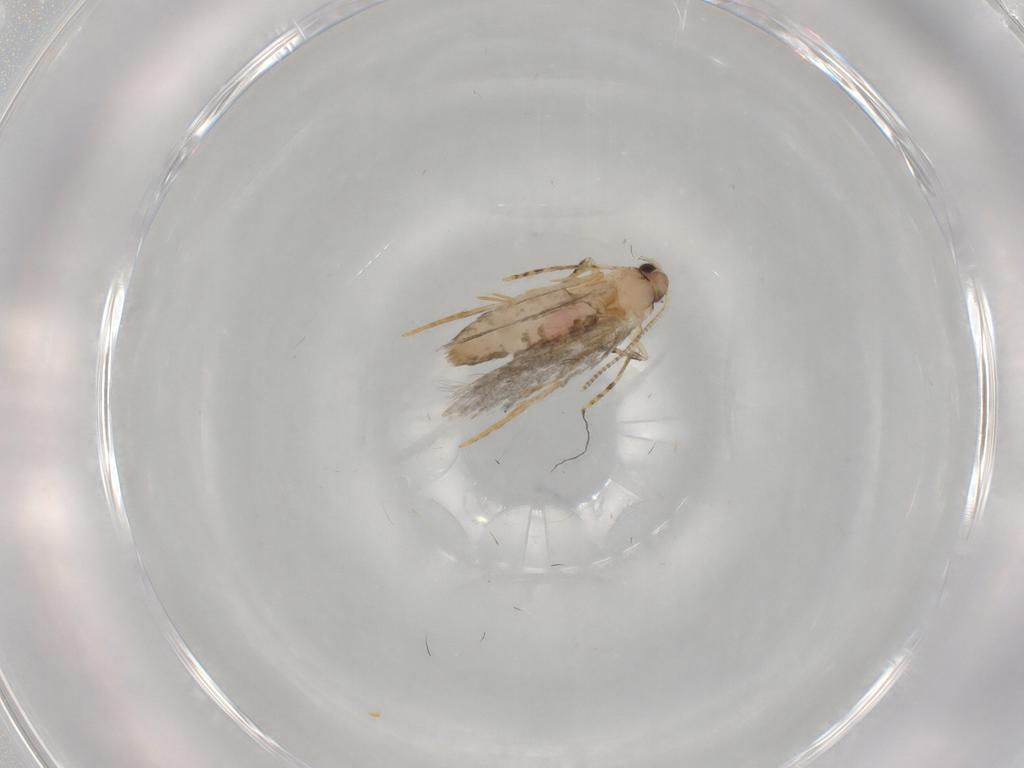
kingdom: Animalia
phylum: Arthropoda
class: Insecta
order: Lepidoptera
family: Tineidae
